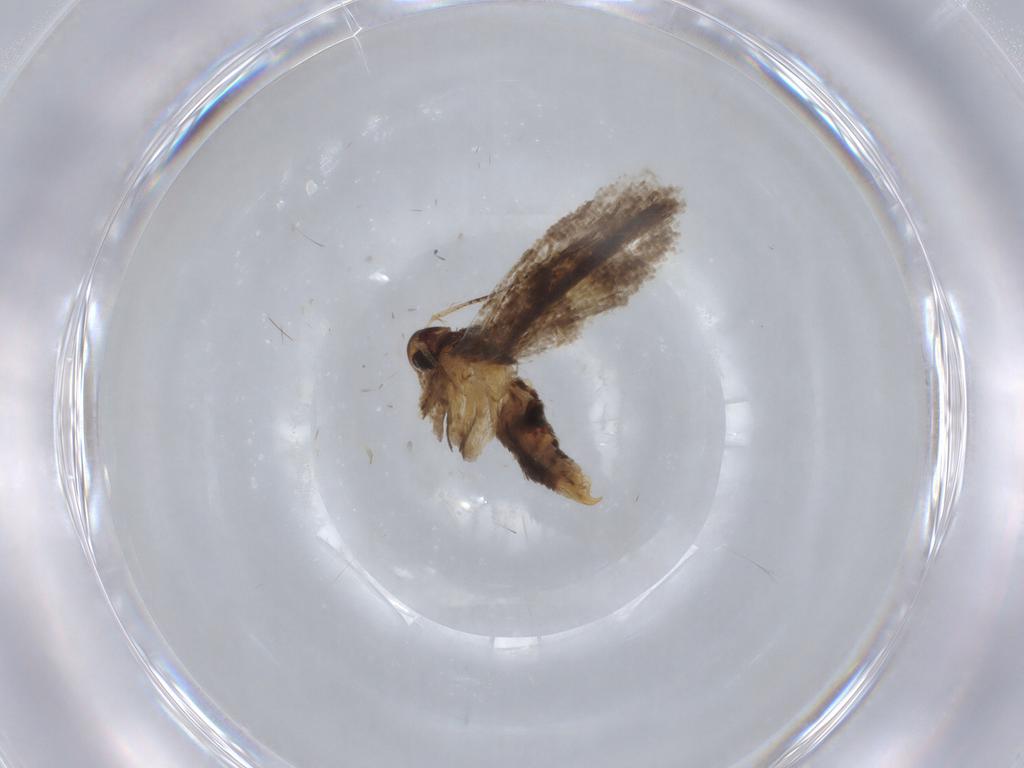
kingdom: Animalia
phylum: Arthropoda
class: Insecta
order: Lepidoptera
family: Oecophoridae
